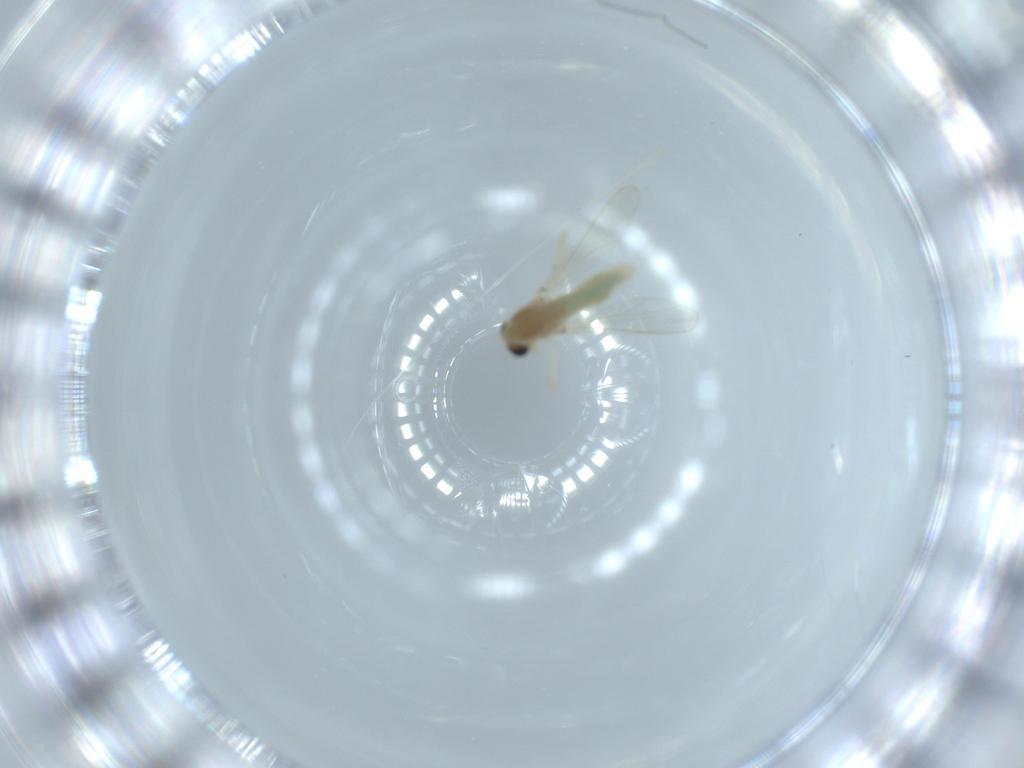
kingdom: Animalia
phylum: Arthropoda
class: Insecta
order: Diptera
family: Chironomidae
